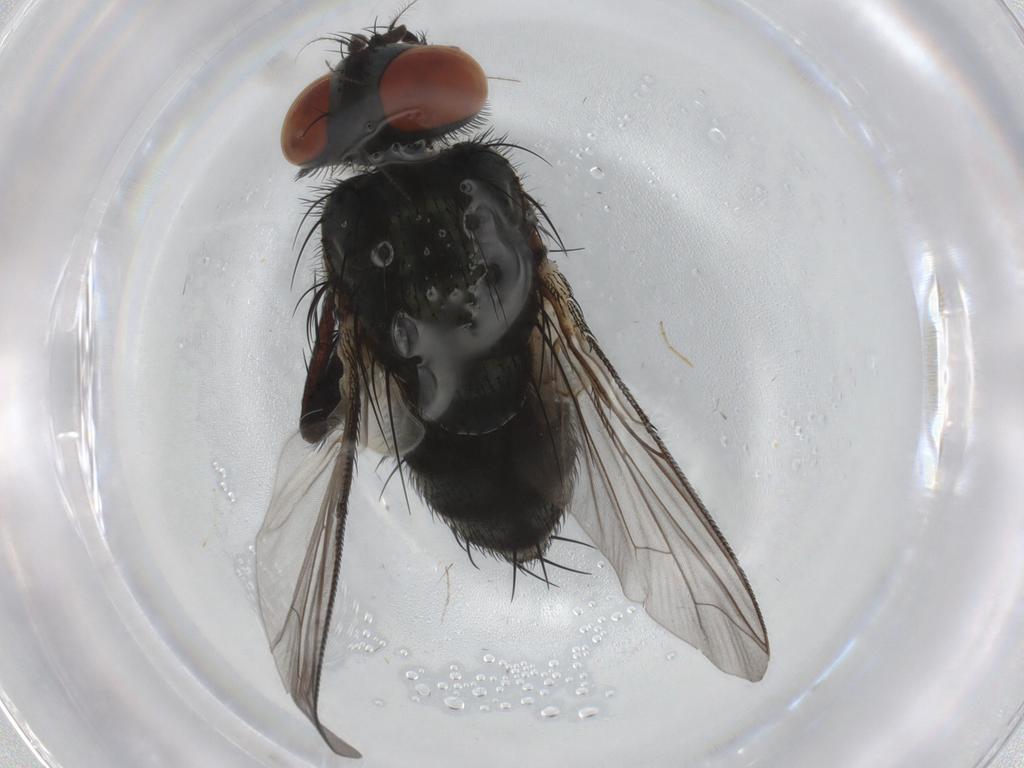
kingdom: Animalia
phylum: Arthropoda
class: Insecta
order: Diptera
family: Sarcophagidae
